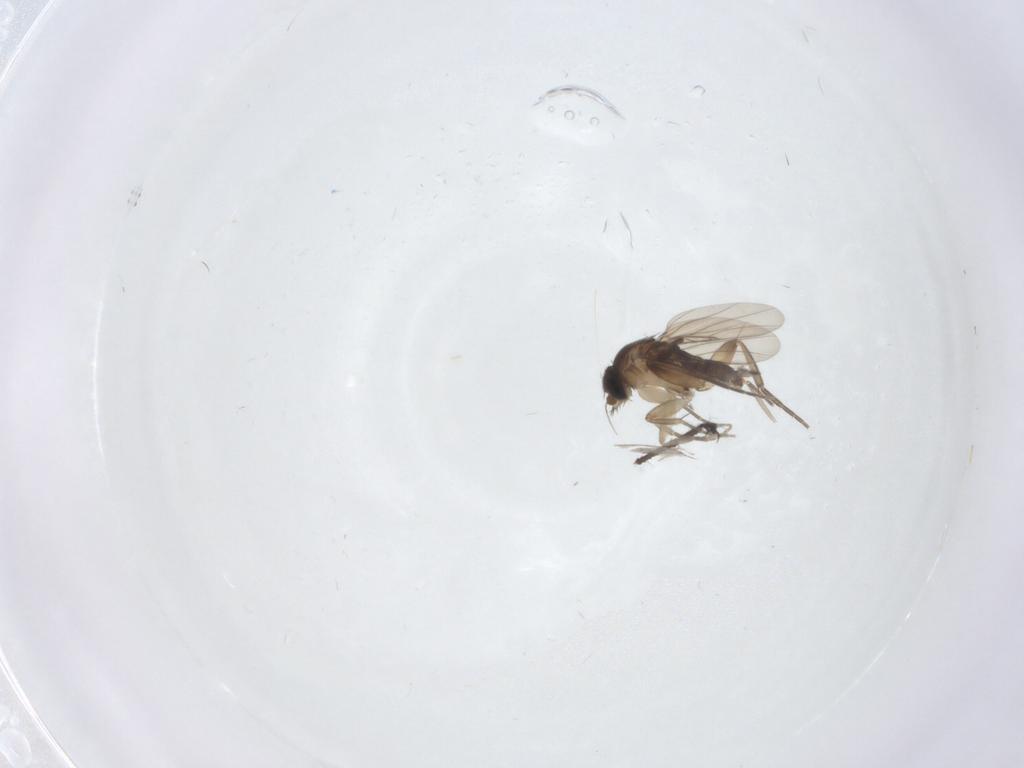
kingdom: Animalia
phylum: Arthropoda
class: Insecta
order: Diptera
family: Sciaridae
